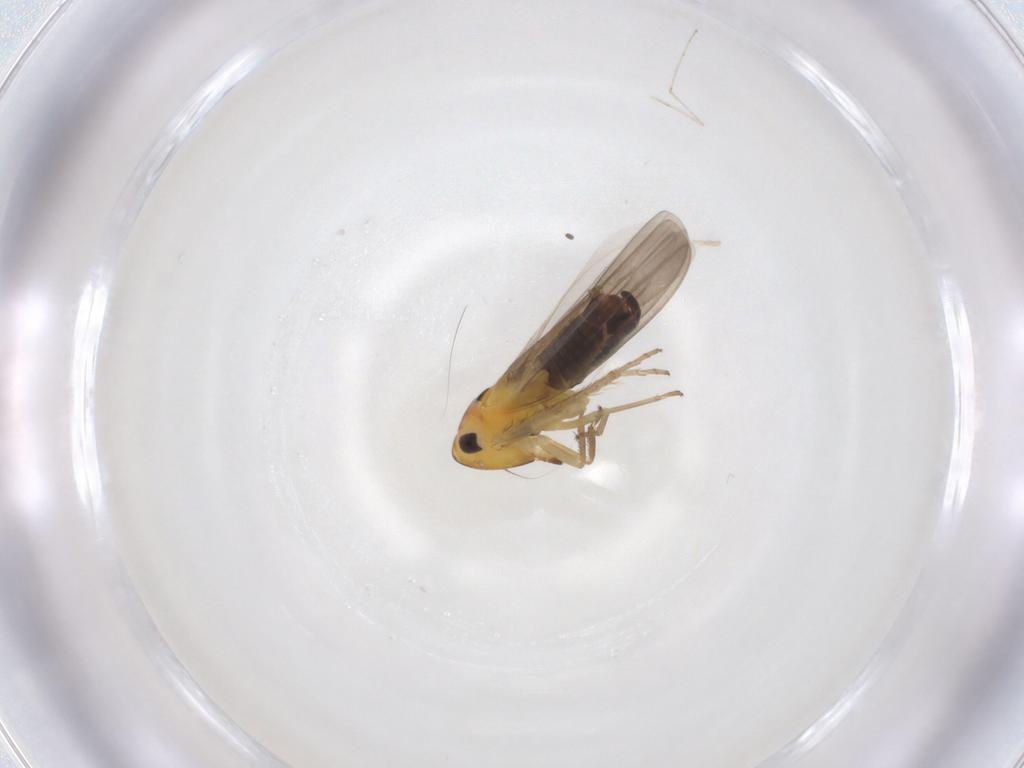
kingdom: Animalia
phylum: Arthropoda
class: Insecta
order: Hemiptera
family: Cicadellidae
